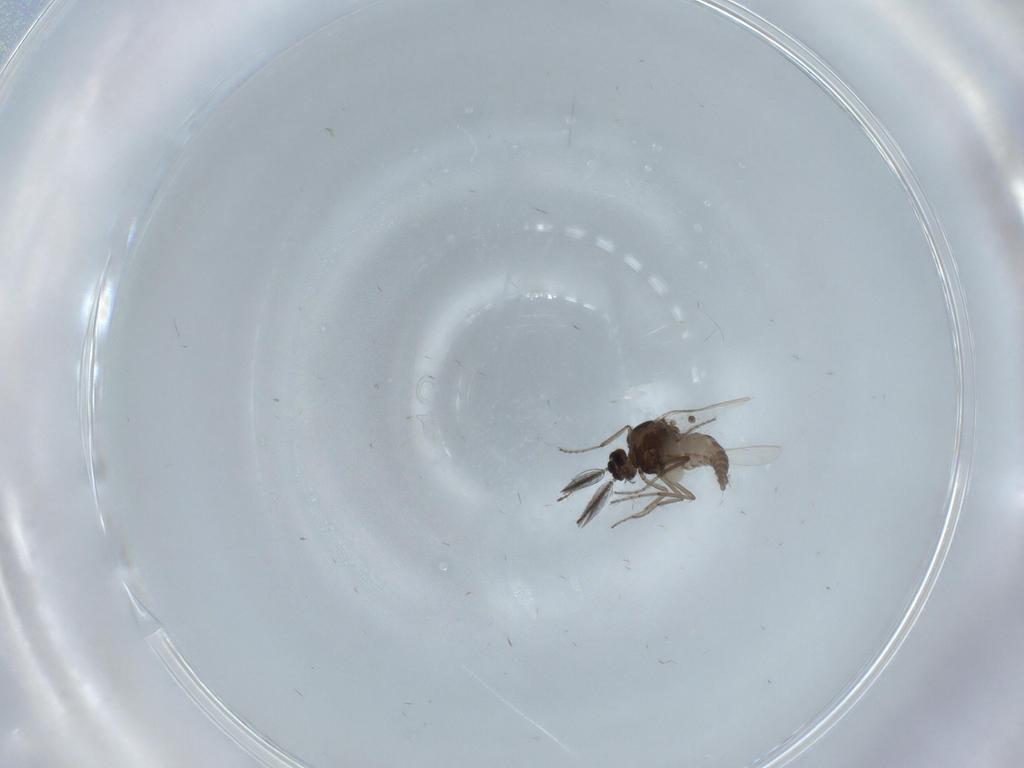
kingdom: Animalia
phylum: Arthropoda
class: Insecta
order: Diptera
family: Ceratopogonidae
